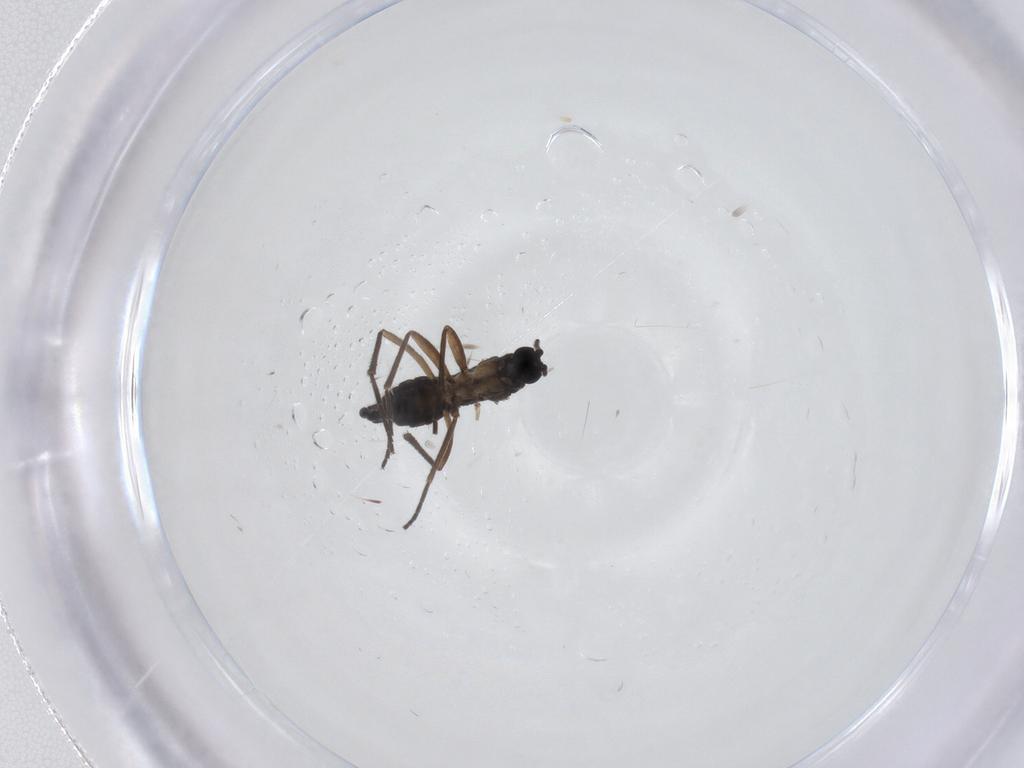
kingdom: Animalia
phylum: Arthropoda
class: Insecta
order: Diptera
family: Sciaridae
